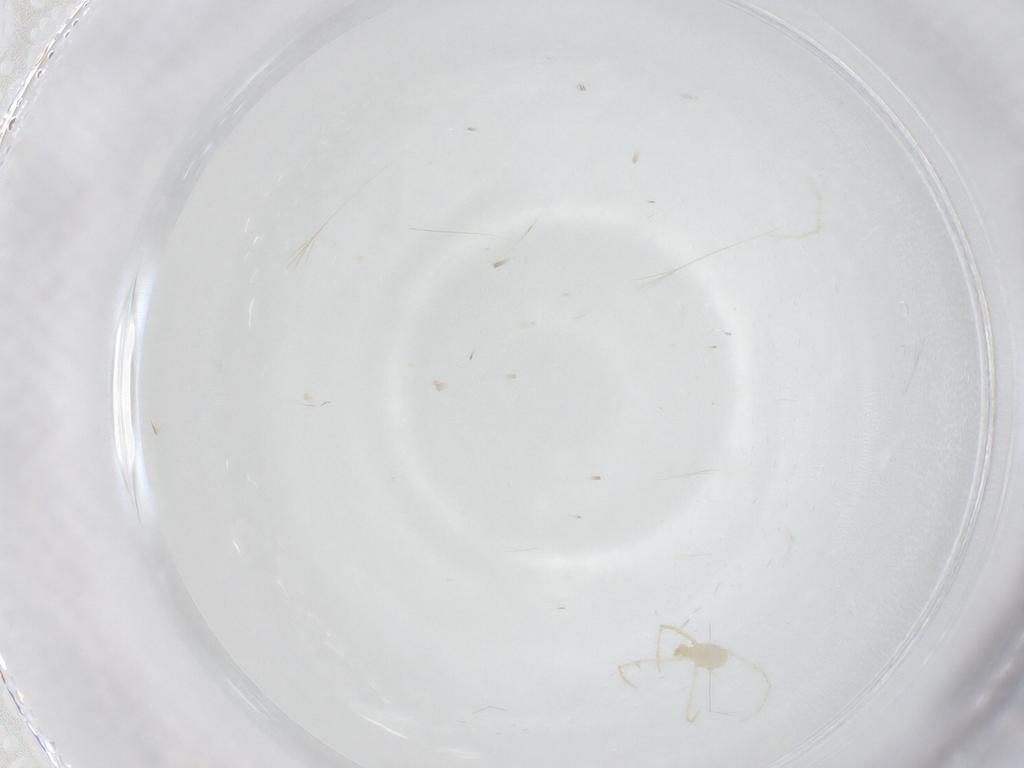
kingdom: Animalia
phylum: Arthropoda
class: Arachnida
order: Trombidiformes
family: Erythraeidae
